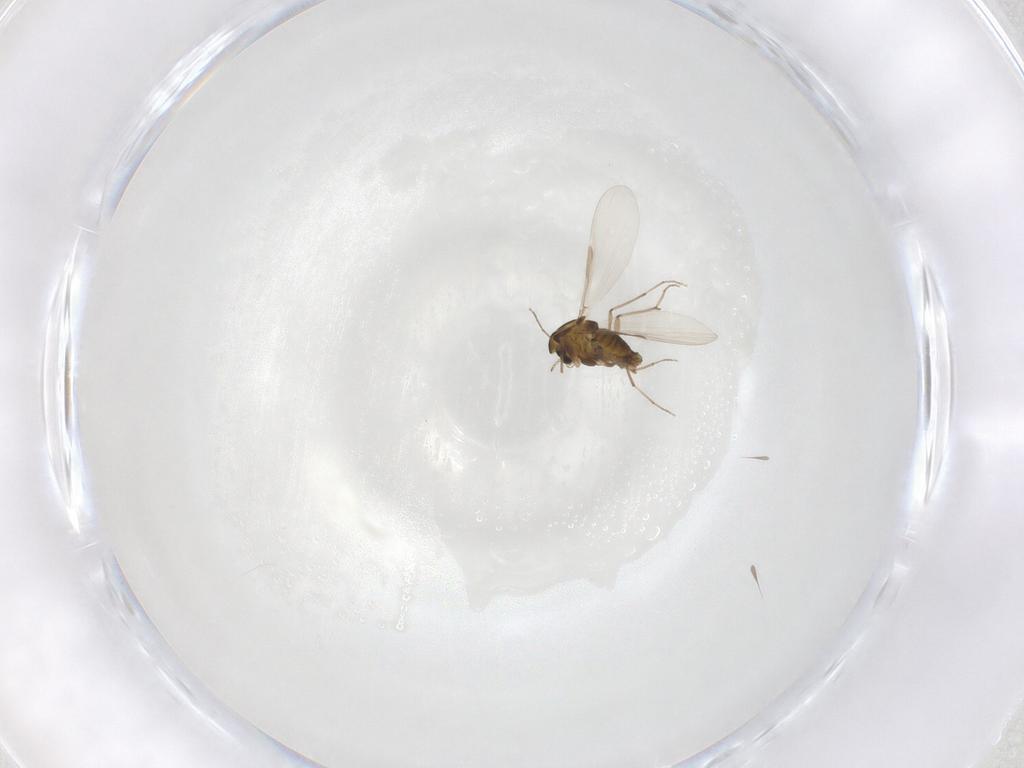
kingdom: Animalia
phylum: Arthropoda
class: Insecta
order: Diptera
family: Chironomidae
